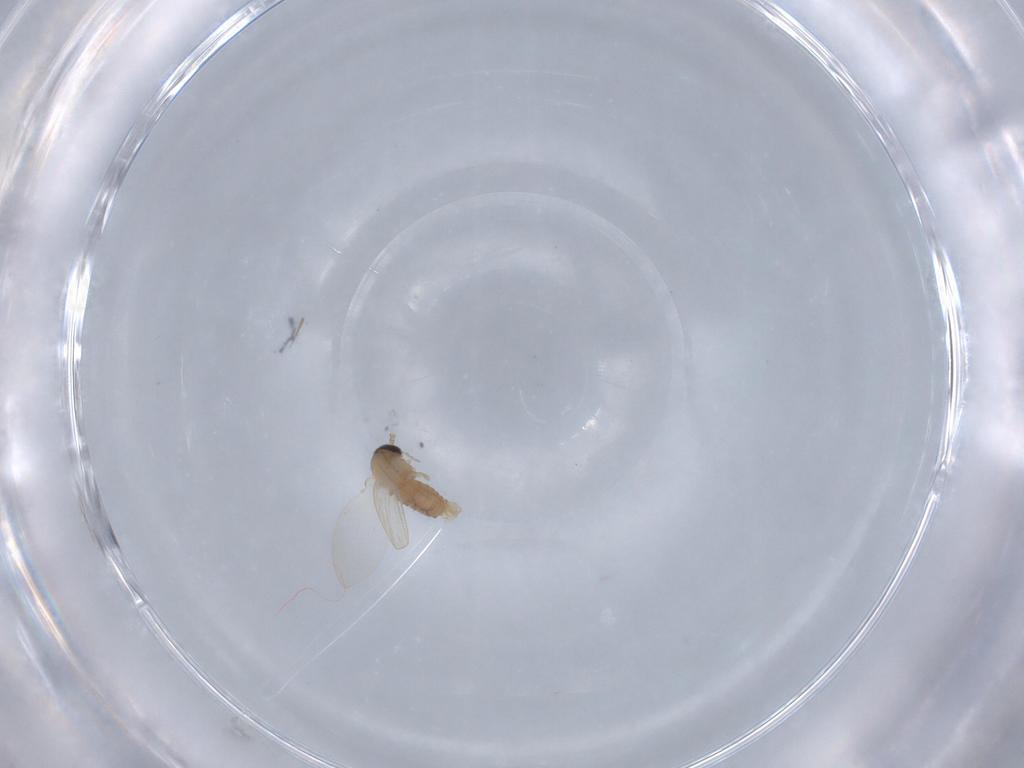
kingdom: Animalia
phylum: Arthropoda
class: Insecta
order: Diptera
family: Psychodidae
